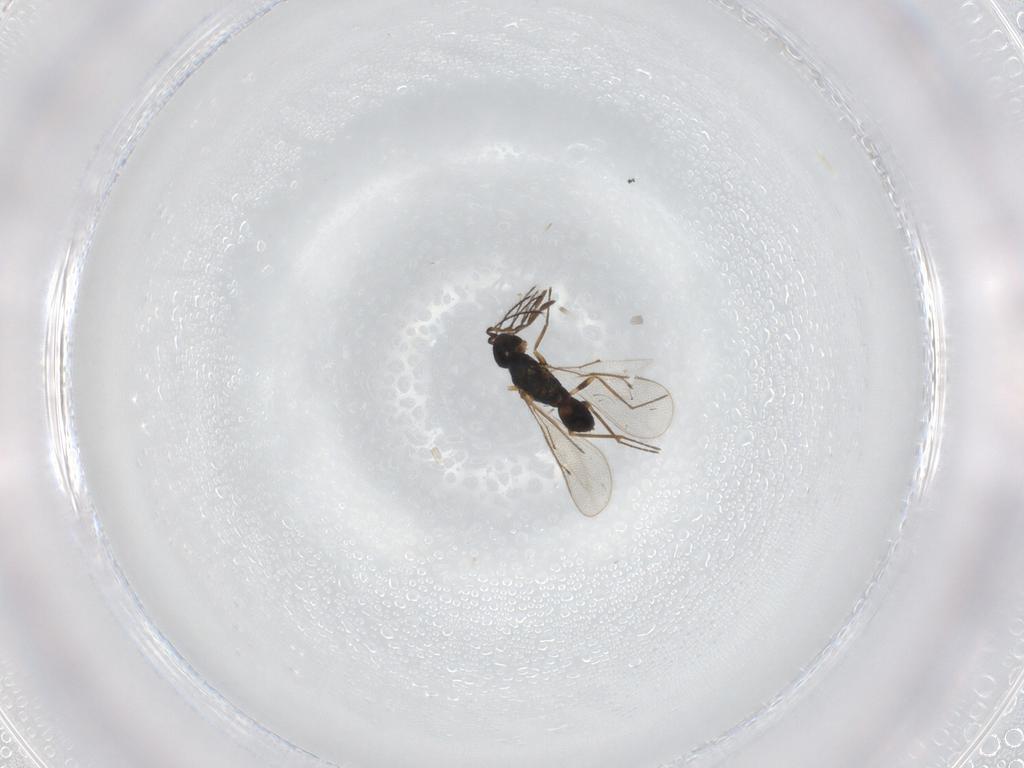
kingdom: Animalia
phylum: Arthropoda
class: Insecta
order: Hymenoptera
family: Eulophidae
